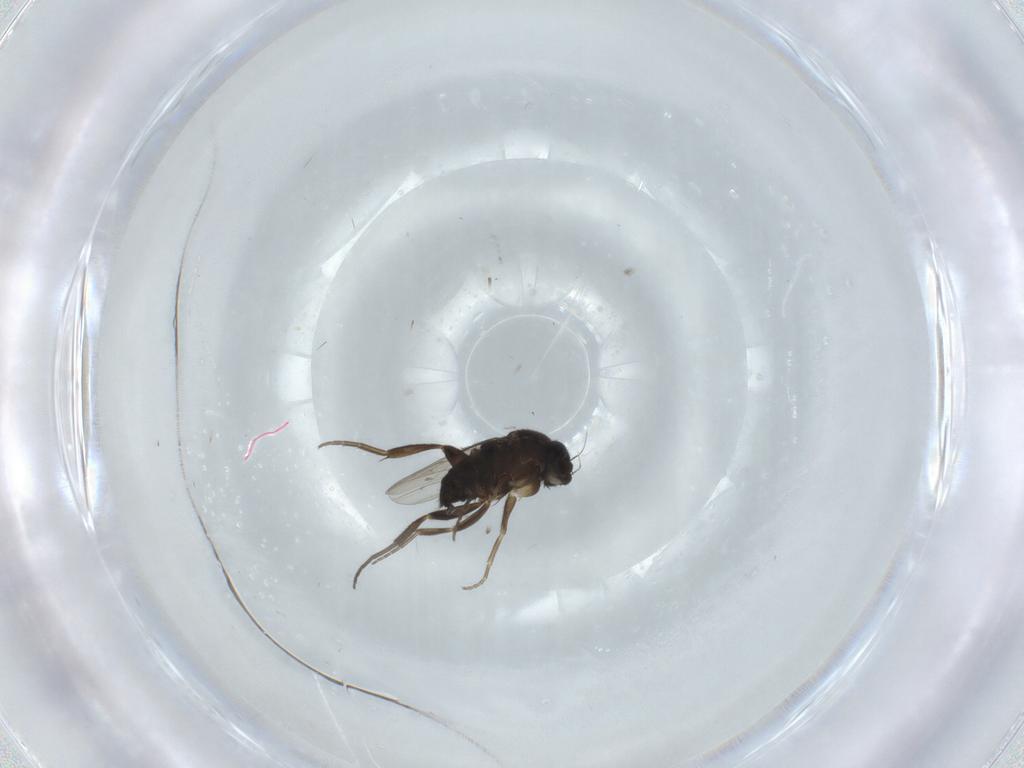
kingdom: Animalia
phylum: Arthropoda
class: Insecta
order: Diptera
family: Phoridae
